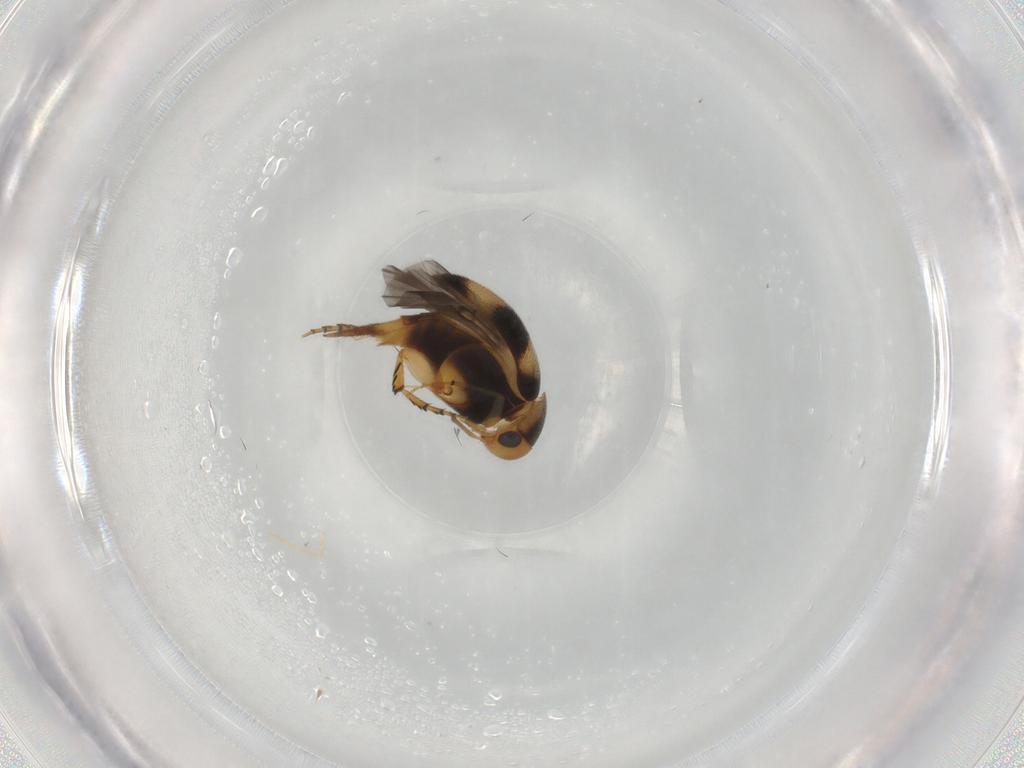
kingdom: Animalia
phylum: Arthropoda
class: Insecta
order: Coleoptera
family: Mordellidae
